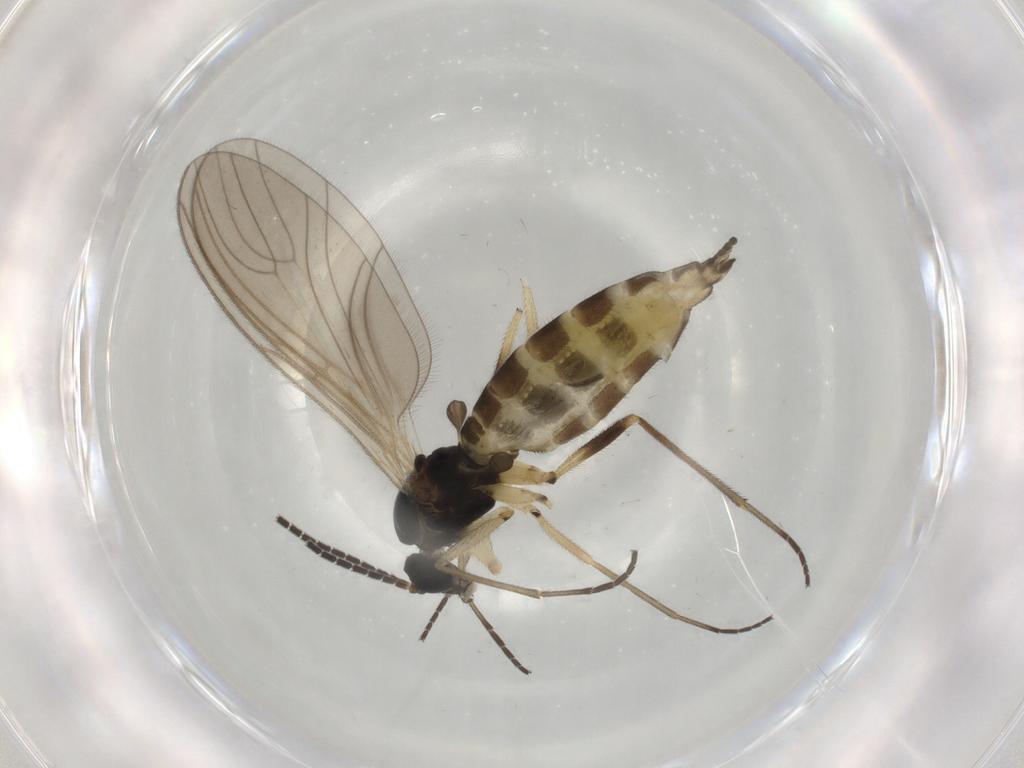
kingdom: Animalia
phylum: Arthropoda
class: Insecta
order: Diptera
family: Sciaridae
